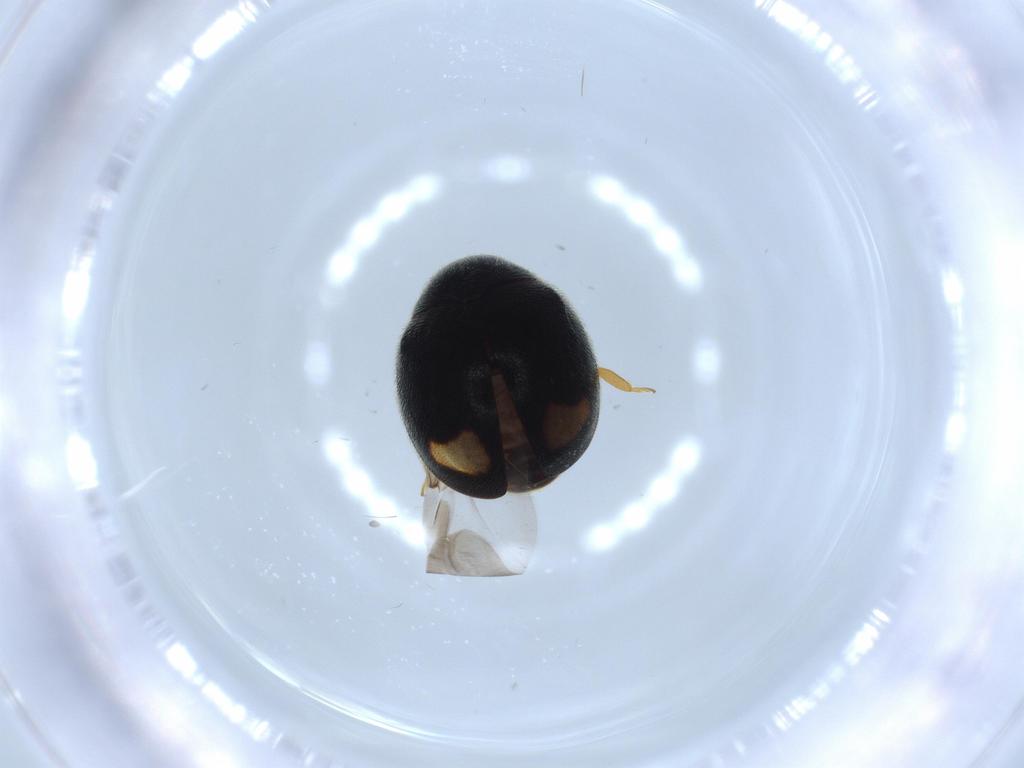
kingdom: Animalia
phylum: Arthropoda
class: Insecta
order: Coleoptera
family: Coccinellidae
